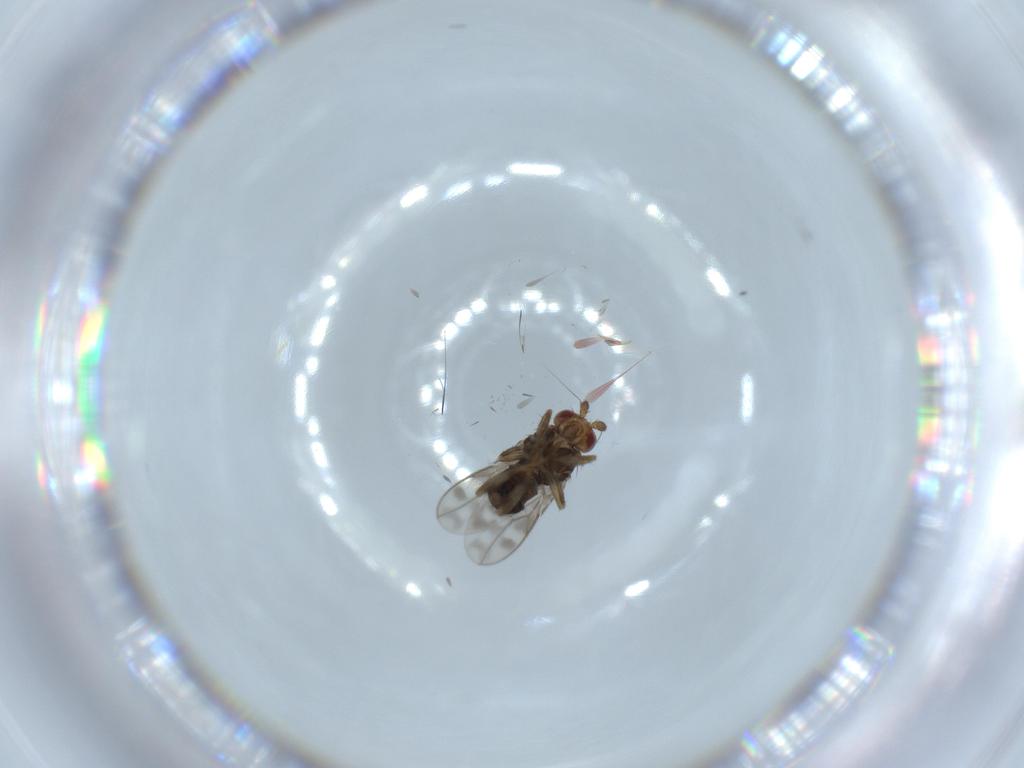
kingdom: Animalia
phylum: Arthropoda
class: Insecta
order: Diptera
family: Sphaeroceridae
